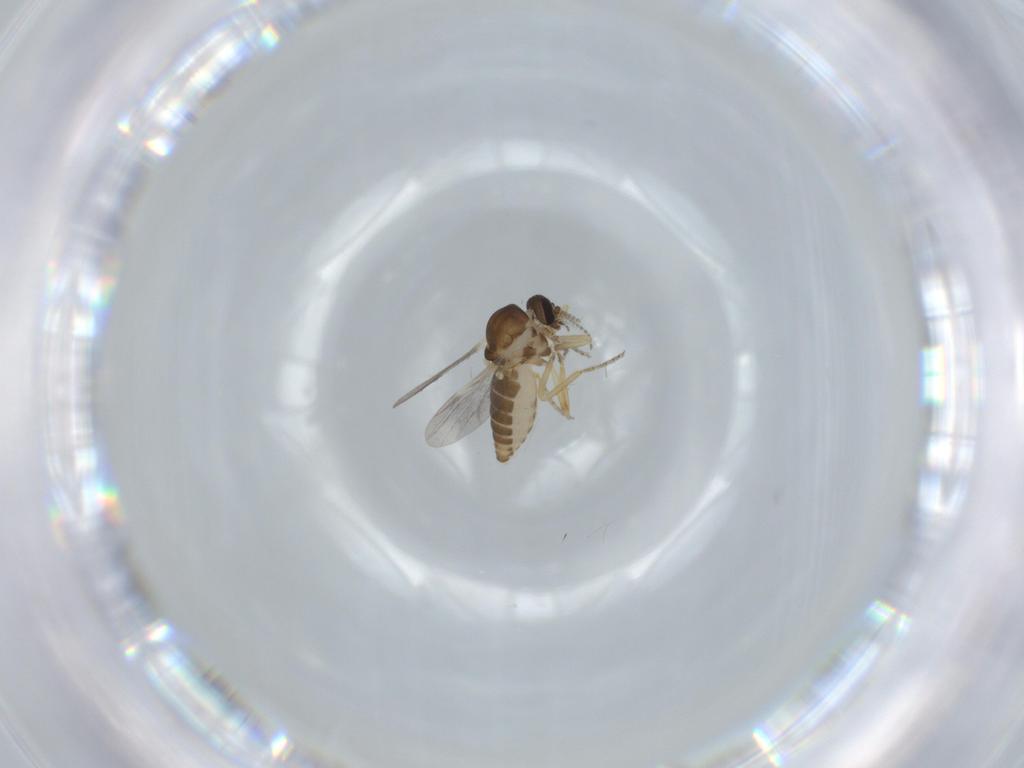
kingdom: Animalia
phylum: Arthropoda
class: Insecta
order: Diptera
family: Ceratopogonidae
